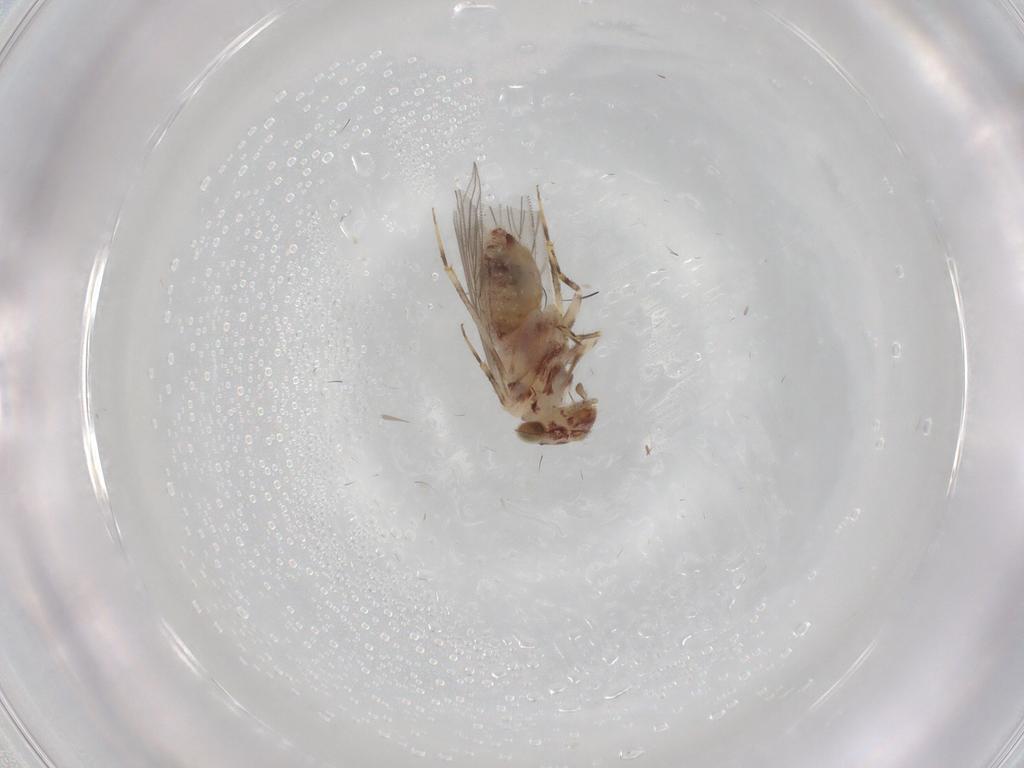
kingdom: Animalia
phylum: Arthropoda
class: Insecta
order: Psocodea
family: Lepidopsocidae
